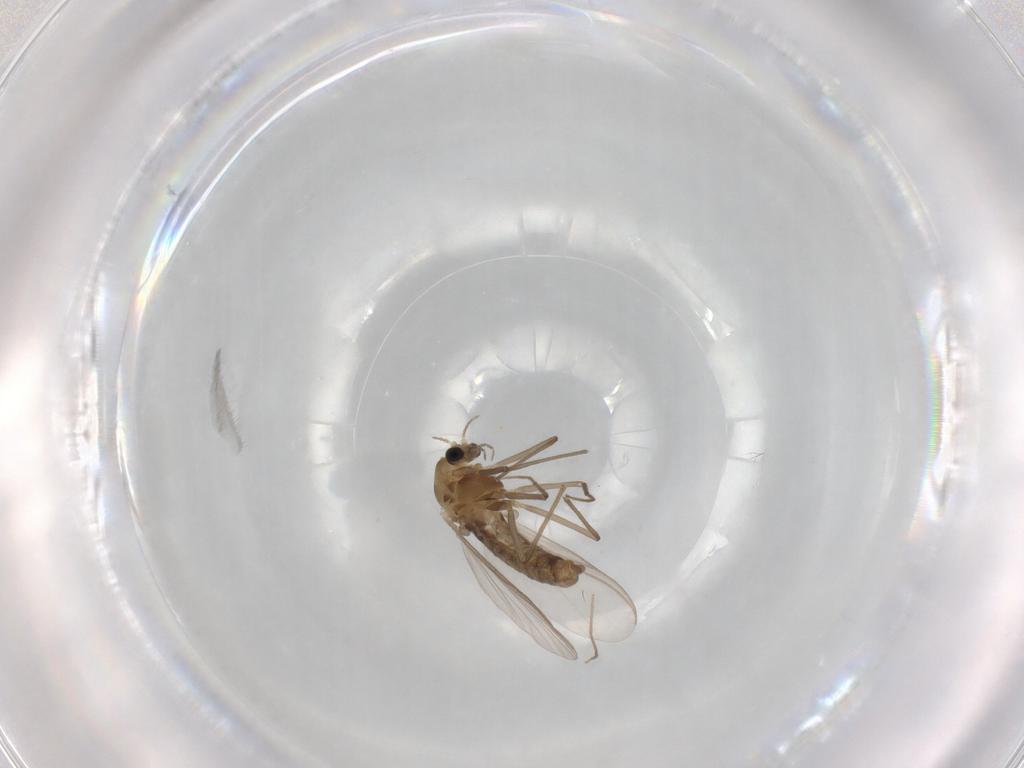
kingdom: Animalia
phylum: Arthropoda
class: Insecta
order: Diptera
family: Chironomidae
